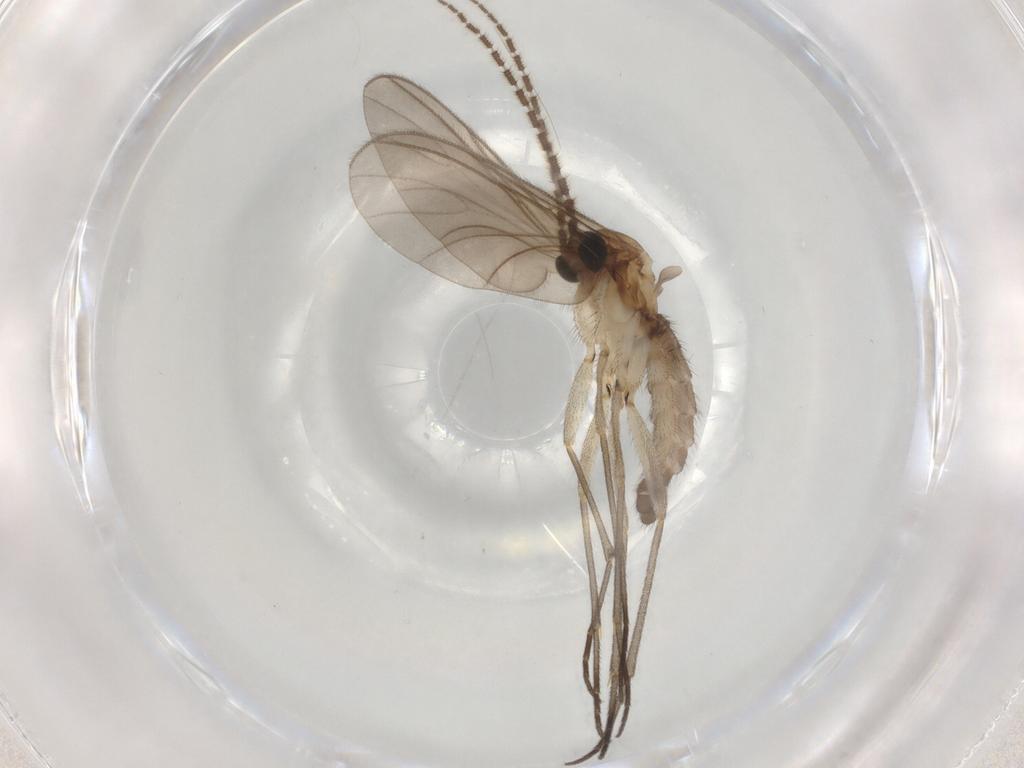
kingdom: Animalia
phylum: Arthropoda
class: Insecta
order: Diptera
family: Sciaridae
